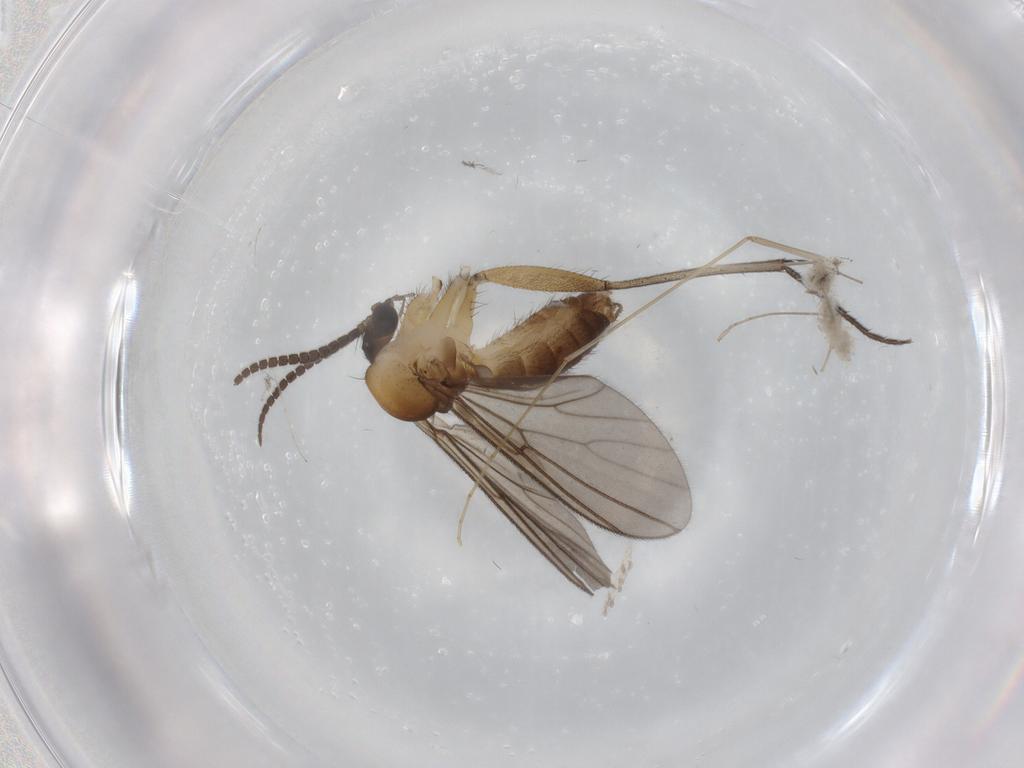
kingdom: Animalia
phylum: Arthropoda
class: Insecta
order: Diptera
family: Mycetophilidae
